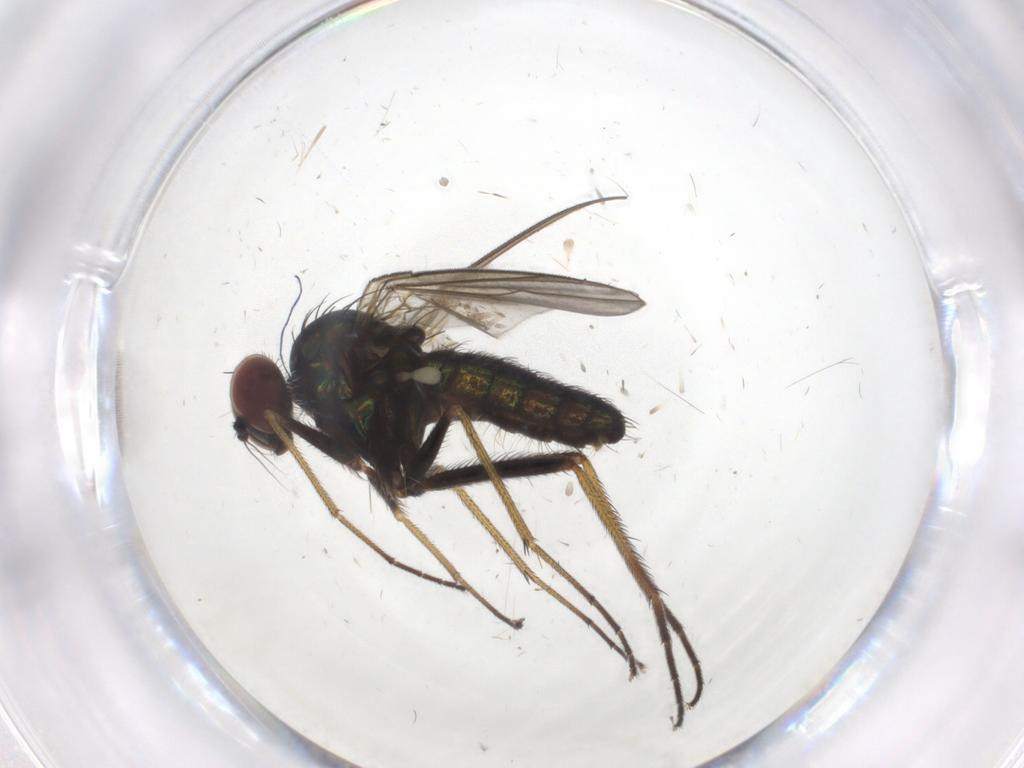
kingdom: Animalia
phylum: Arthropoda
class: Insecta
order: Diptera
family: Dolichopodidae
